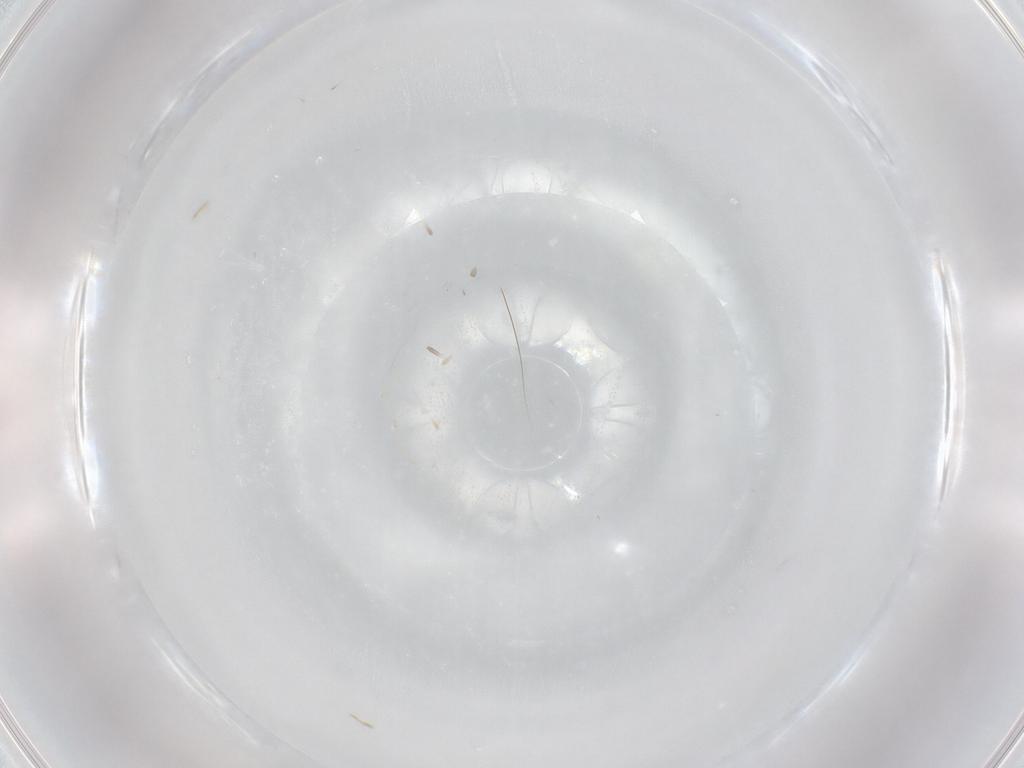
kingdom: Animalia
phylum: Arthropoda
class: Insecta
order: Diptera
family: Cecidomyiidae
